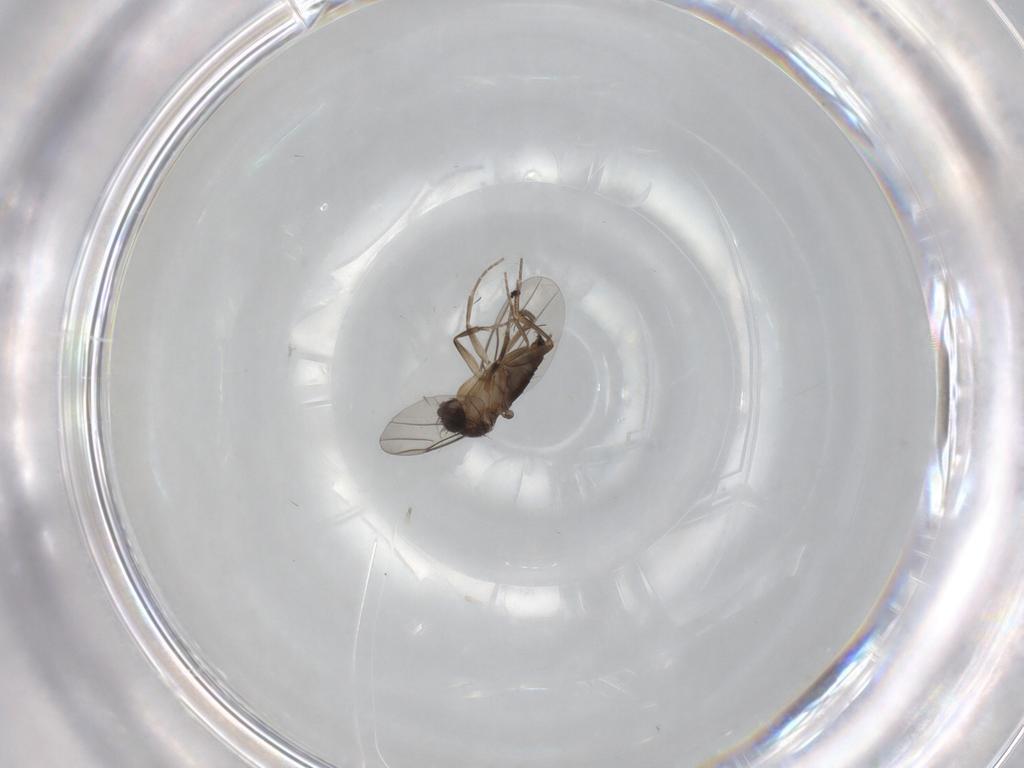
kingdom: Animalia
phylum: Arthropoda
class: Insecta
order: Diptera
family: Phoridae
